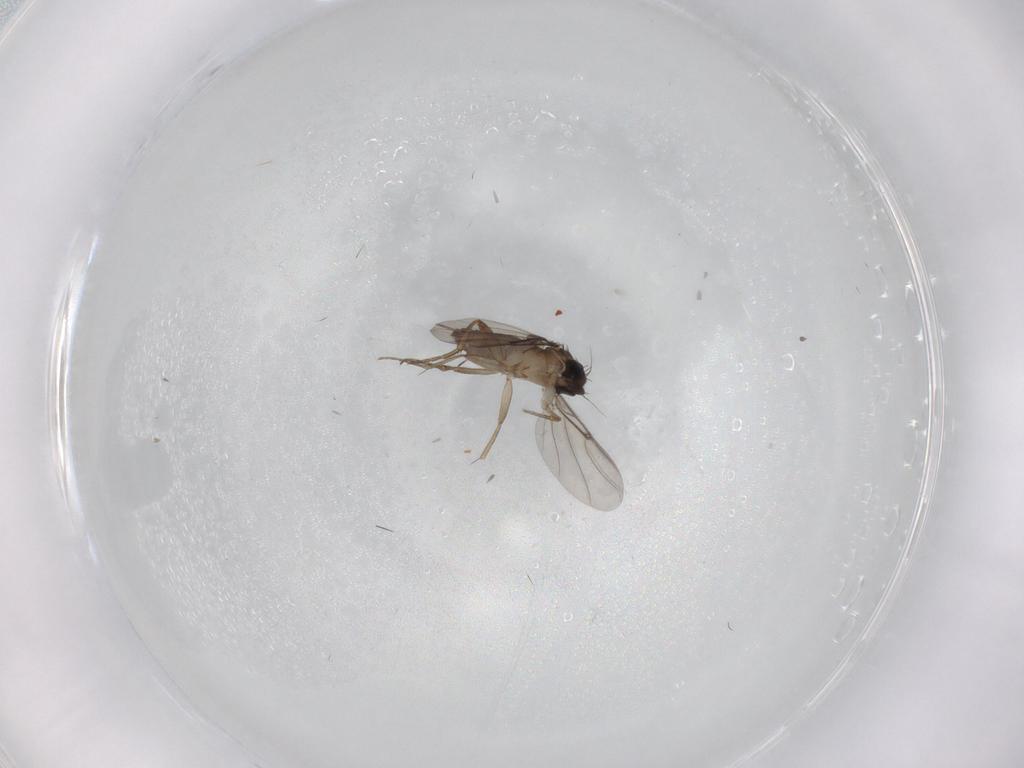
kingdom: Animalia
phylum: Arthropoda
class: Insecta
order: Diptera
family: Phoridae
